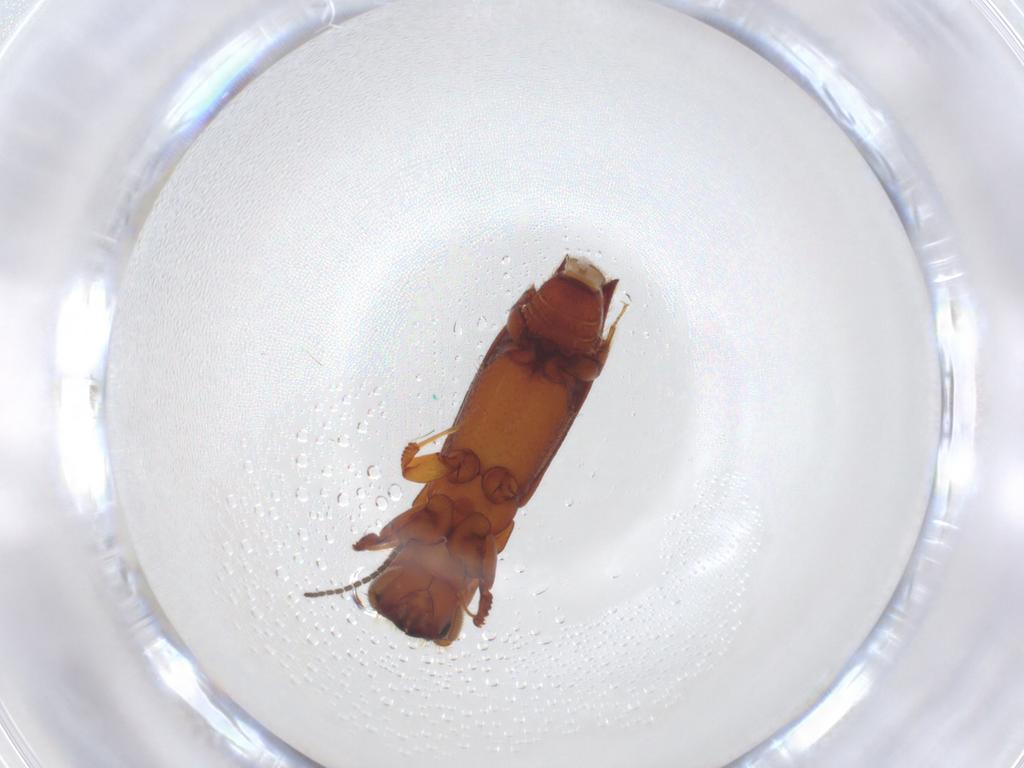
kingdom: Animalia
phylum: Arthropoda
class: Insecta
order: Coleoptera
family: Curculionidae
